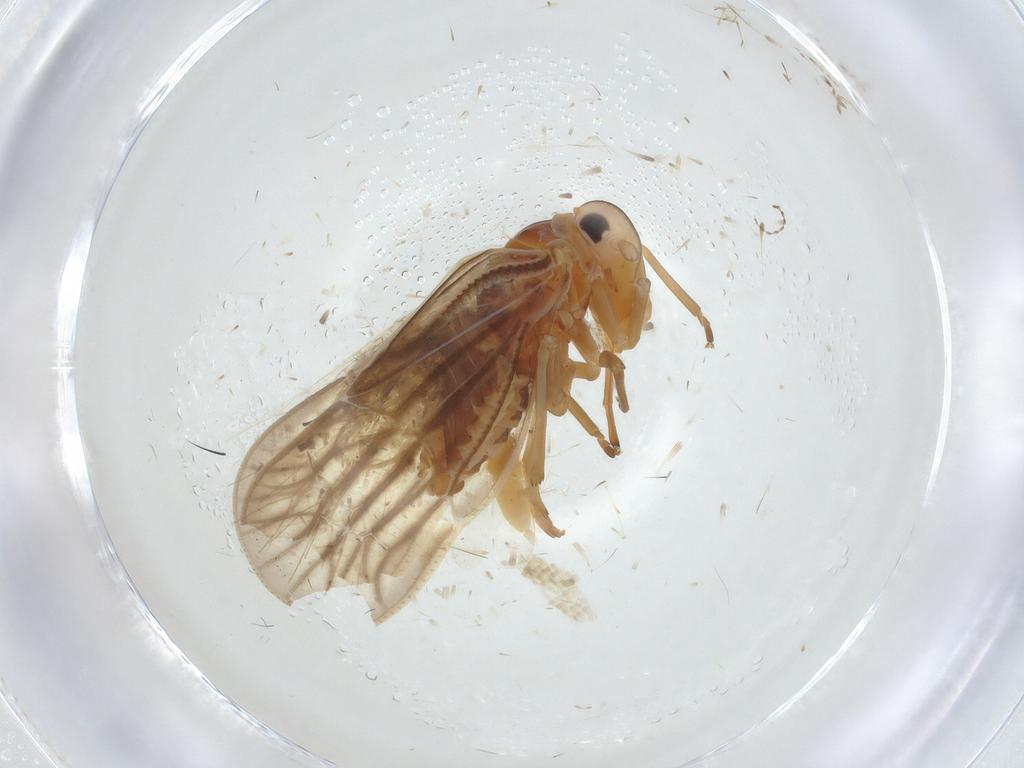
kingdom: Animalia
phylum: Arthropoda
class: Insecta
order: Hemiptera
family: Meenoplidae
